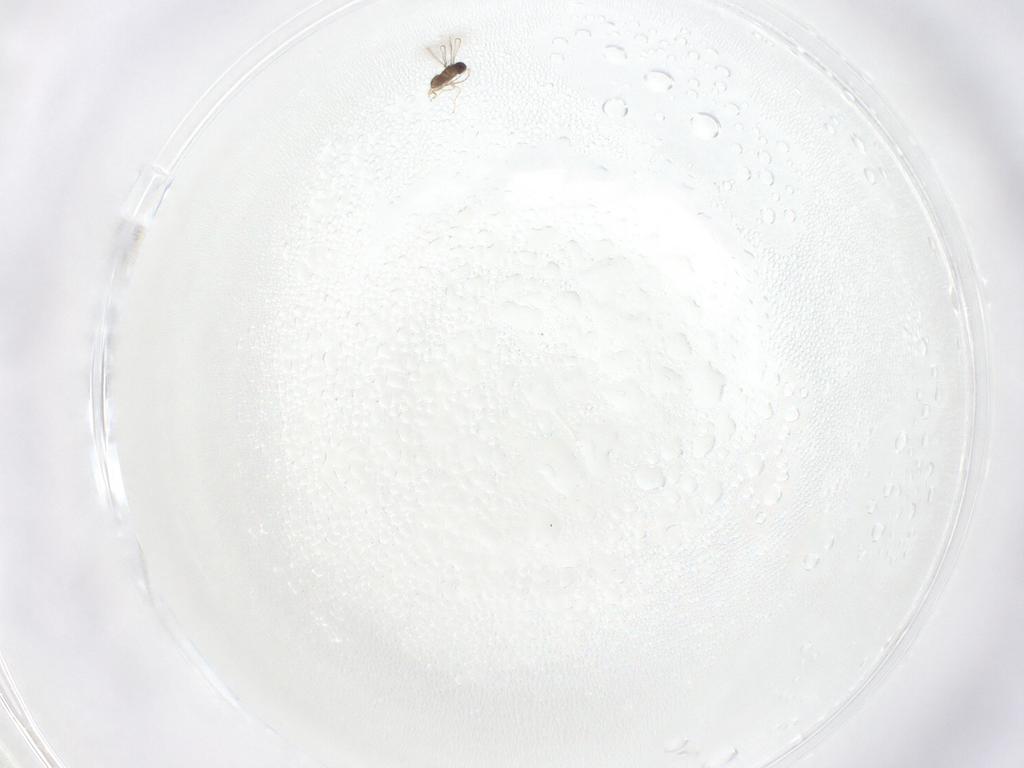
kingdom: Animalia
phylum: Arthropoda
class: Insecta
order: Hymenoptera
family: Mymaridae
